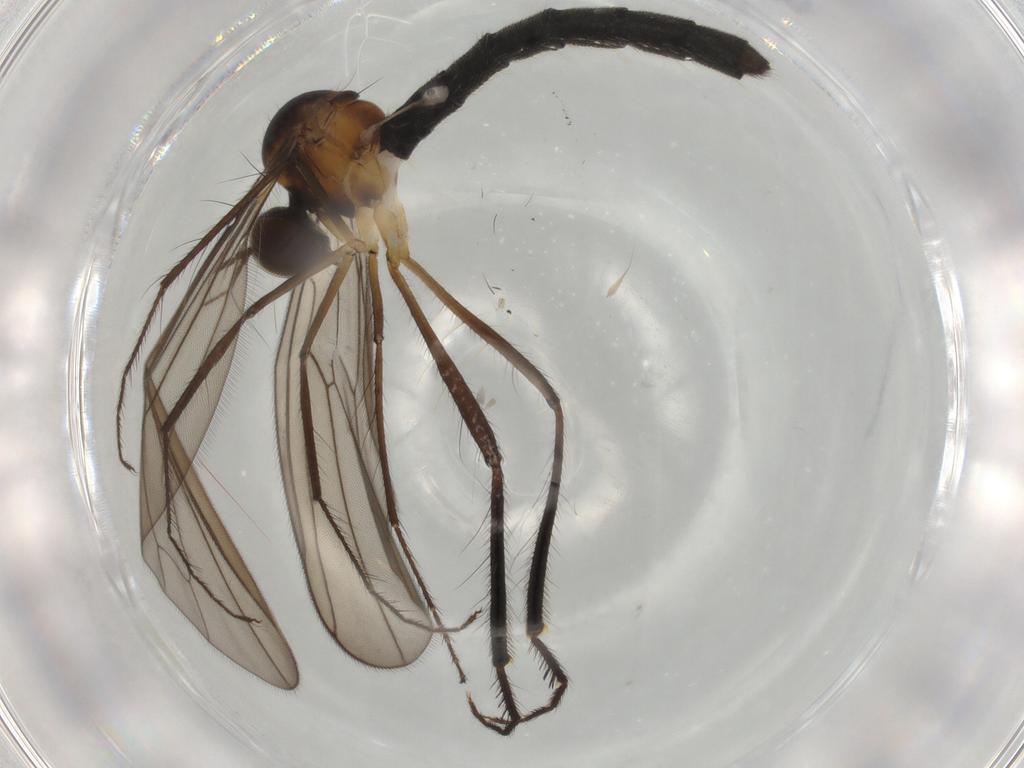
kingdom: Animalia
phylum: Arthropoda
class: Insecta
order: Diptera
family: Hybotidae
